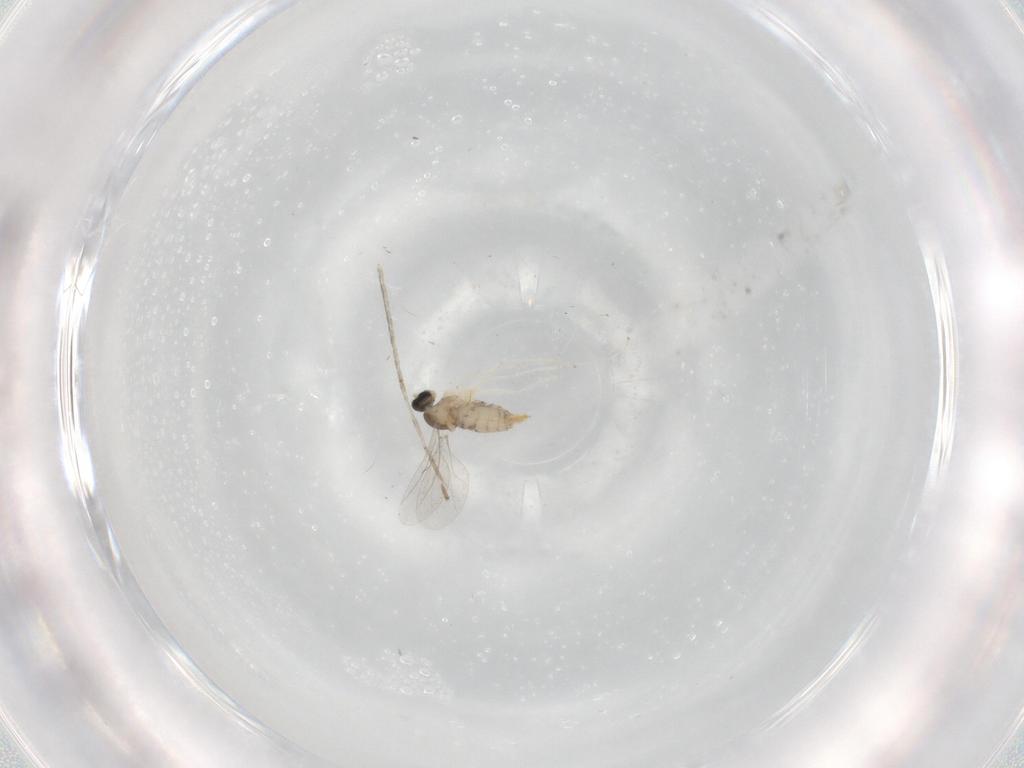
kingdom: Animalia
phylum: Arthropoda
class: Insecta
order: Diptera
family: Cecidomyiidae
